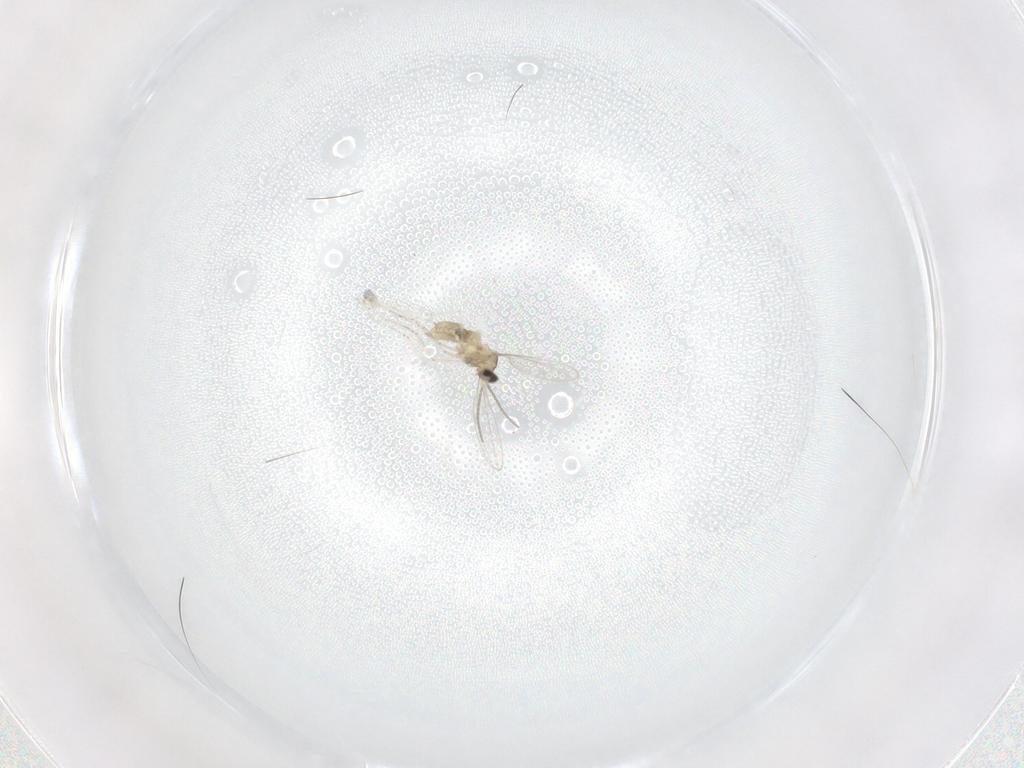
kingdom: Animalia
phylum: Arthropoda
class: Insecta
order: Diptera
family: Cecidomyiidae
